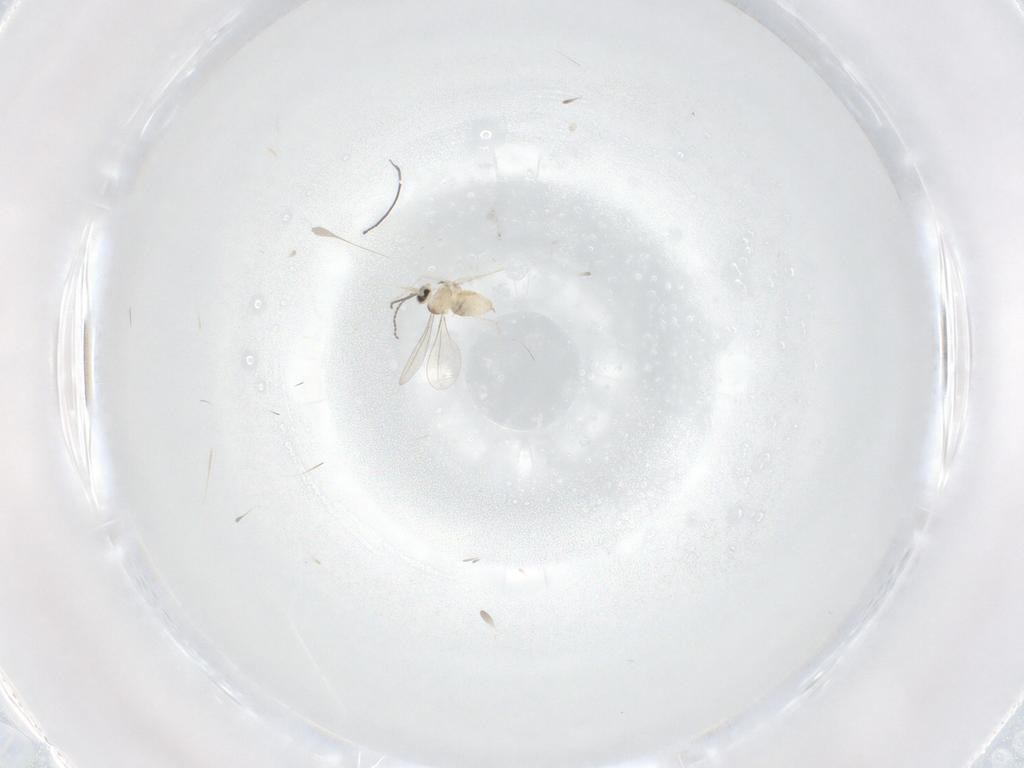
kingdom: Animalia
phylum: Arthropoda
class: Insecta
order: Diptera
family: Cecidomyiidae
